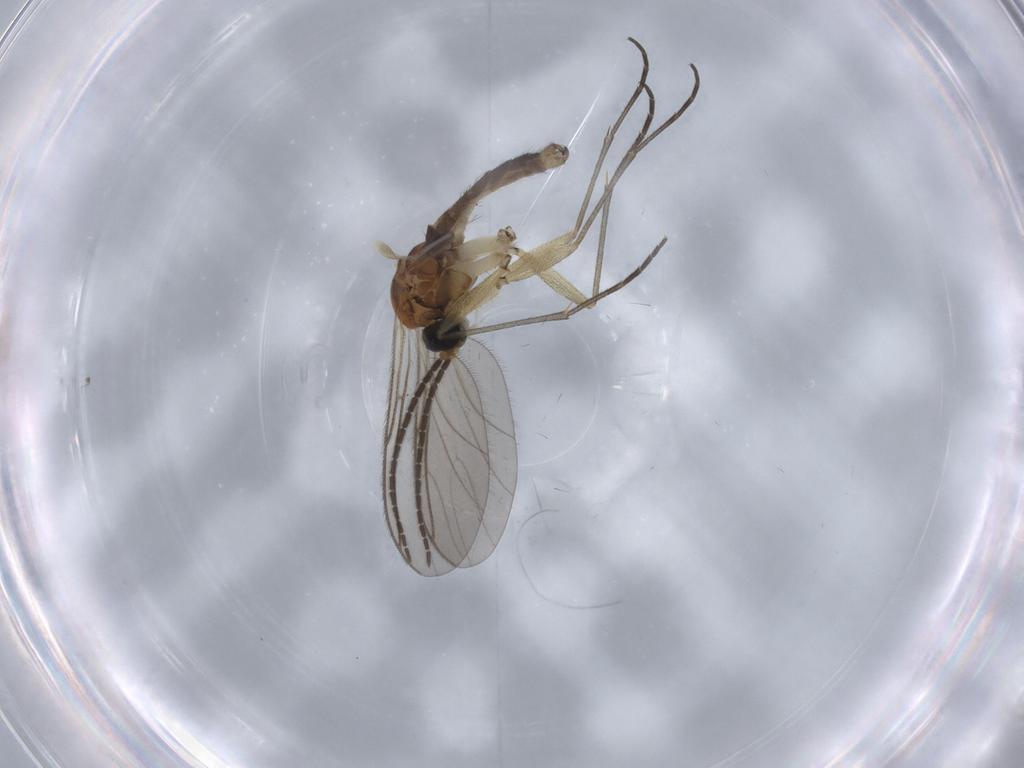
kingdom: Animalia
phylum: Arthropoda
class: Insecta
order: Diptera
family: Sciaridae
